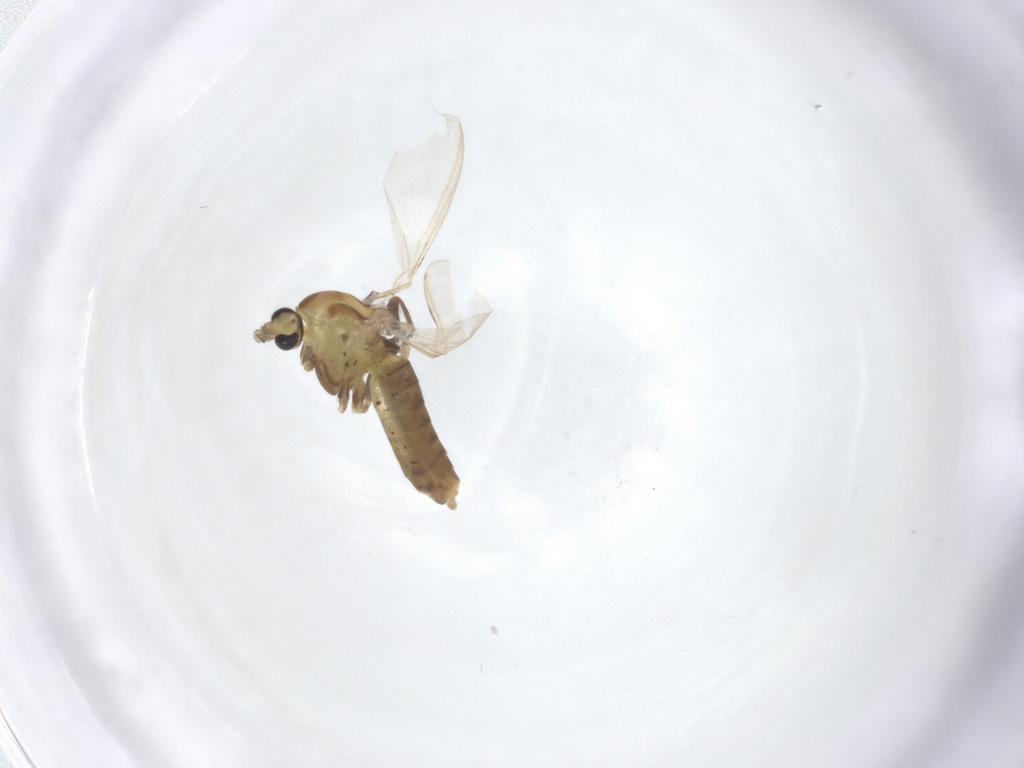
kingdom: Animalia
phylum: Arthropoda
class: Insecta
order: Diptera
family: Chironomidae
